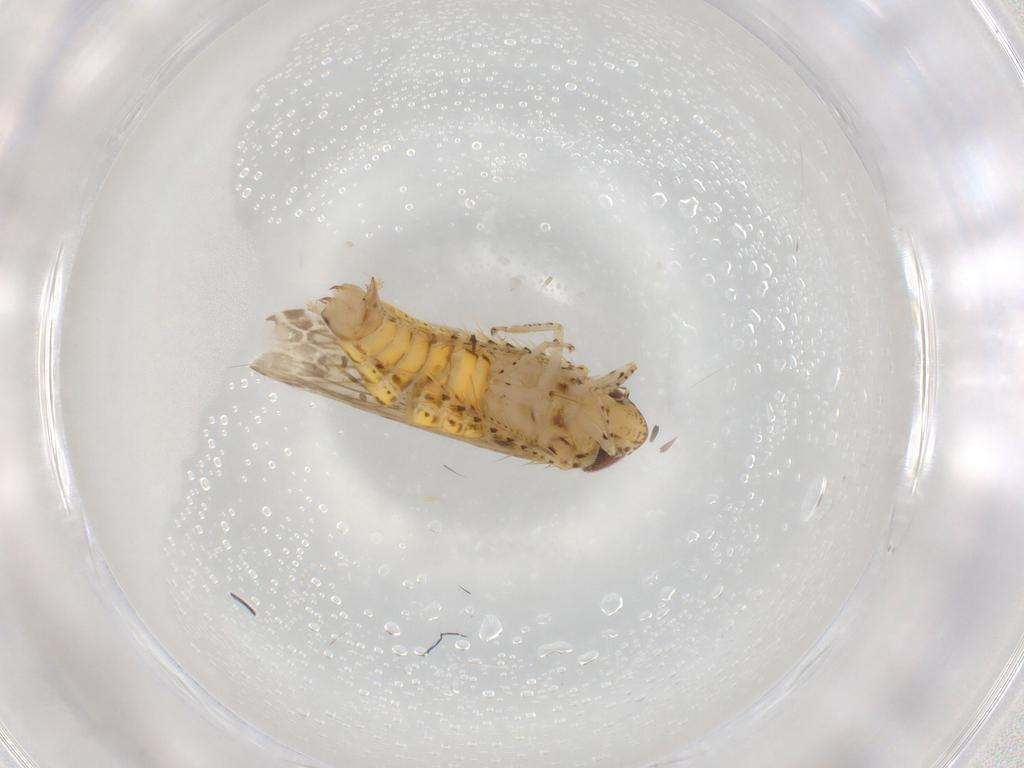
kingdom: Animalia
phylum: Arthropoda
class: Insecta
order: Hemiptera
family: Cicadellidae
